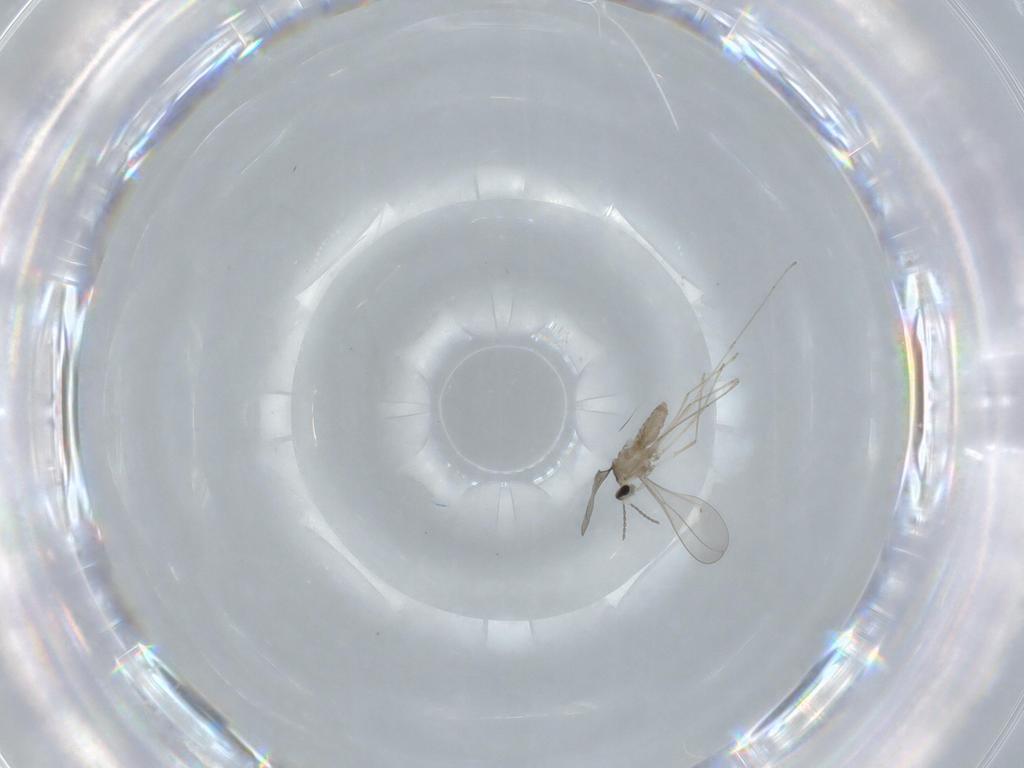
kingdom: Animalia
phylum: Arthropoda
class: Insecta
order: Diptera
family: Cecidomyiidae
